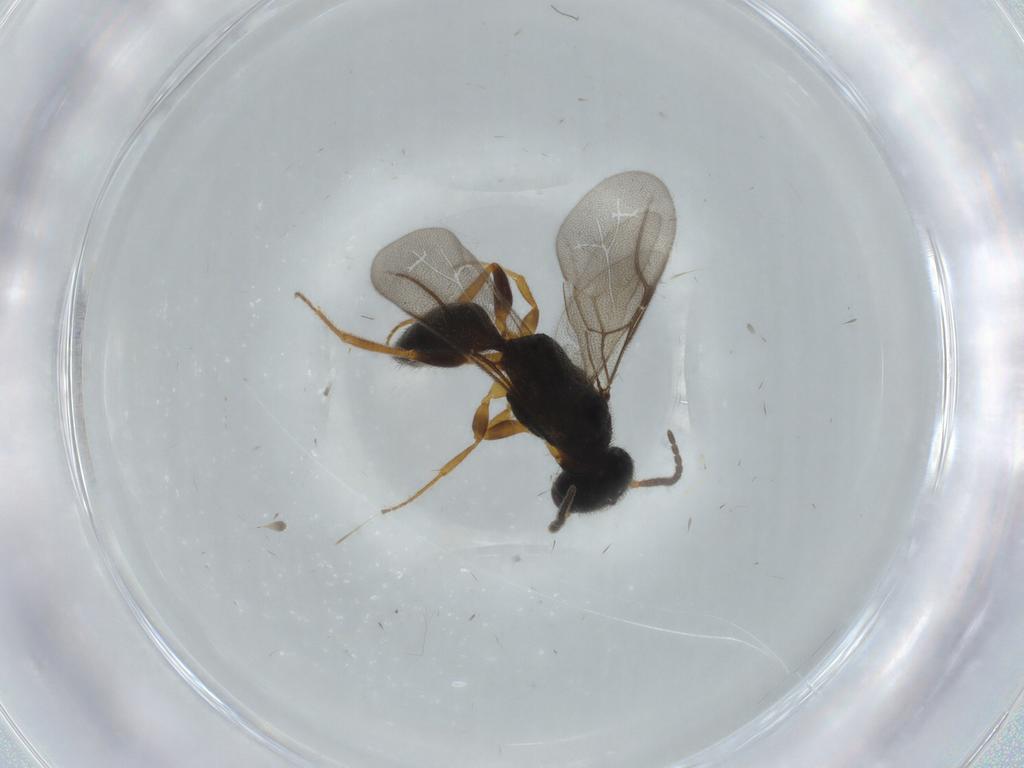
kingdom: Animalia
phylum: Arthropoda
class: Insecta
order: Hymenoptera
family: Bethylidae
